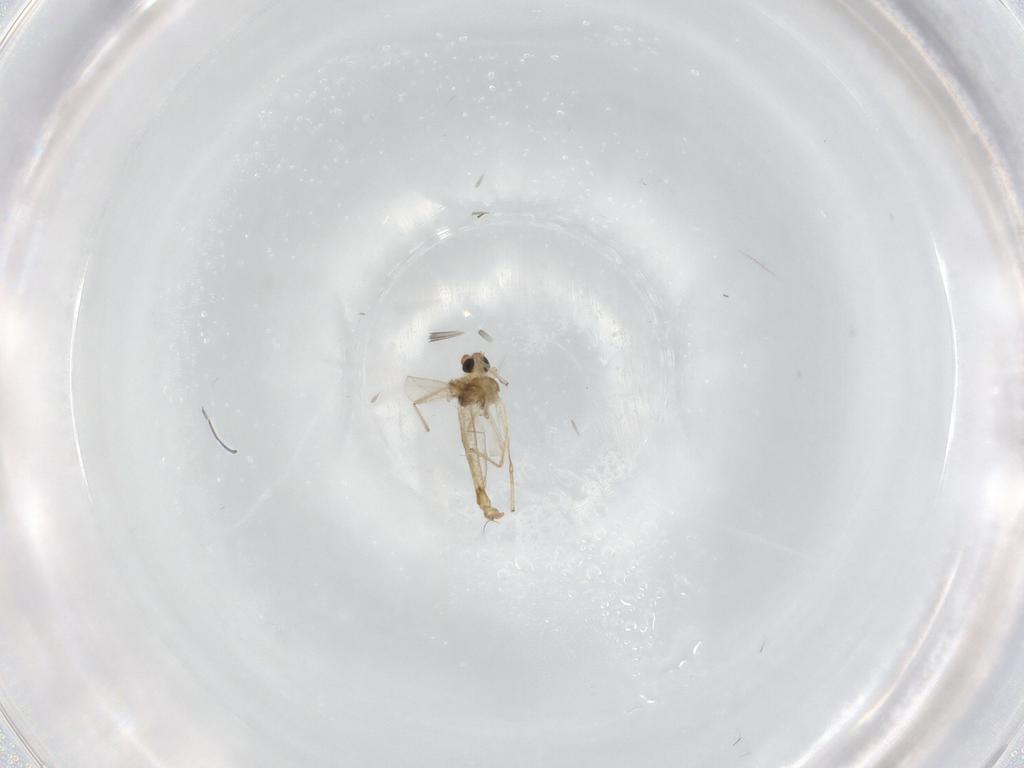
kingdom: Animalia
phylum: Arthropoda
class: Insecta
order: Diptera
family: Chironomidae
